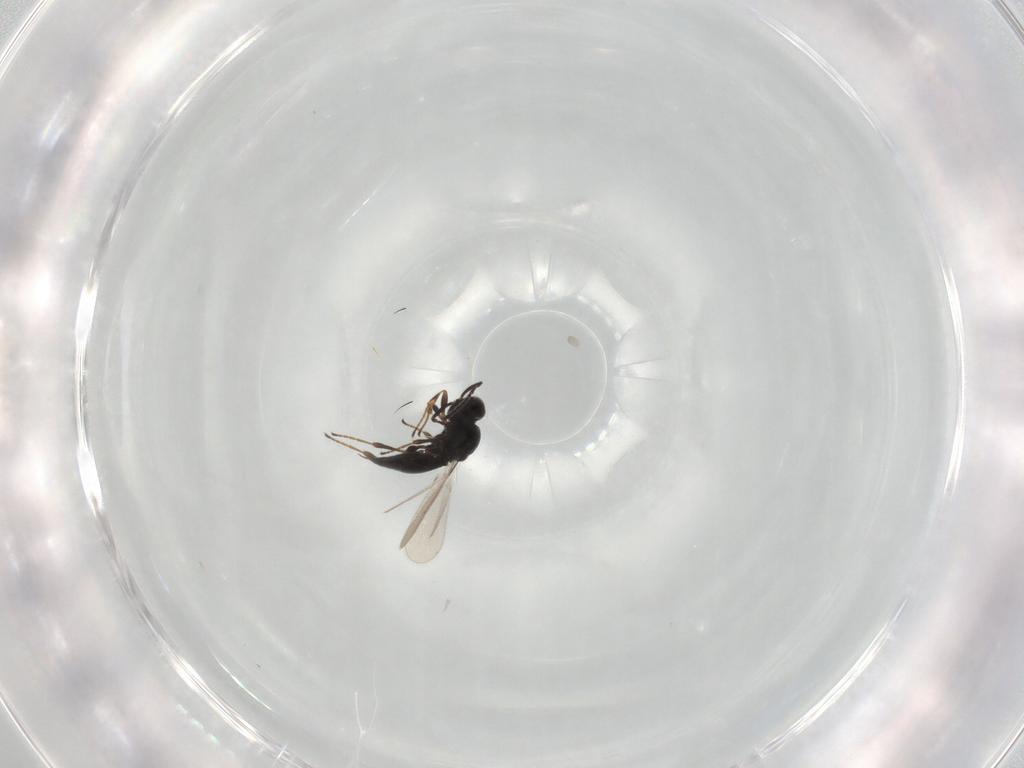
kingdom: Animalia
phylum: Arthropoda
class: Insecta
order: Hymenoptera
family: Platygastridae
